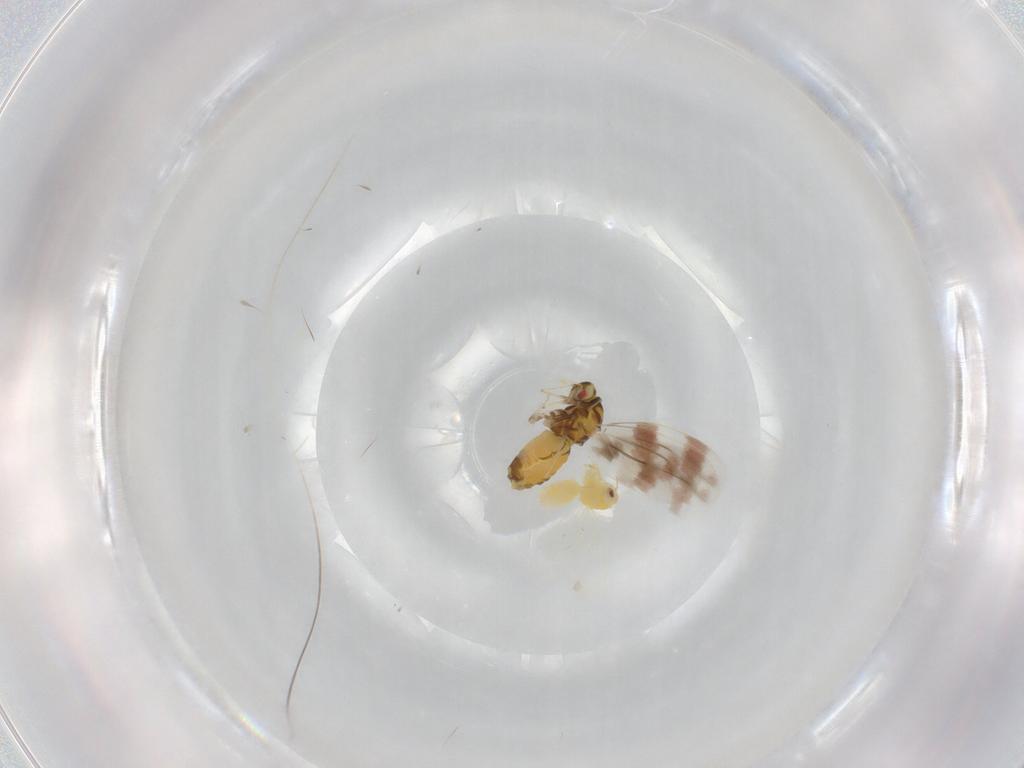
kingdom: Animalia
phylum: Arthropoda
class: Insecta
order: Hemiptera
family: Aleyrodidae
